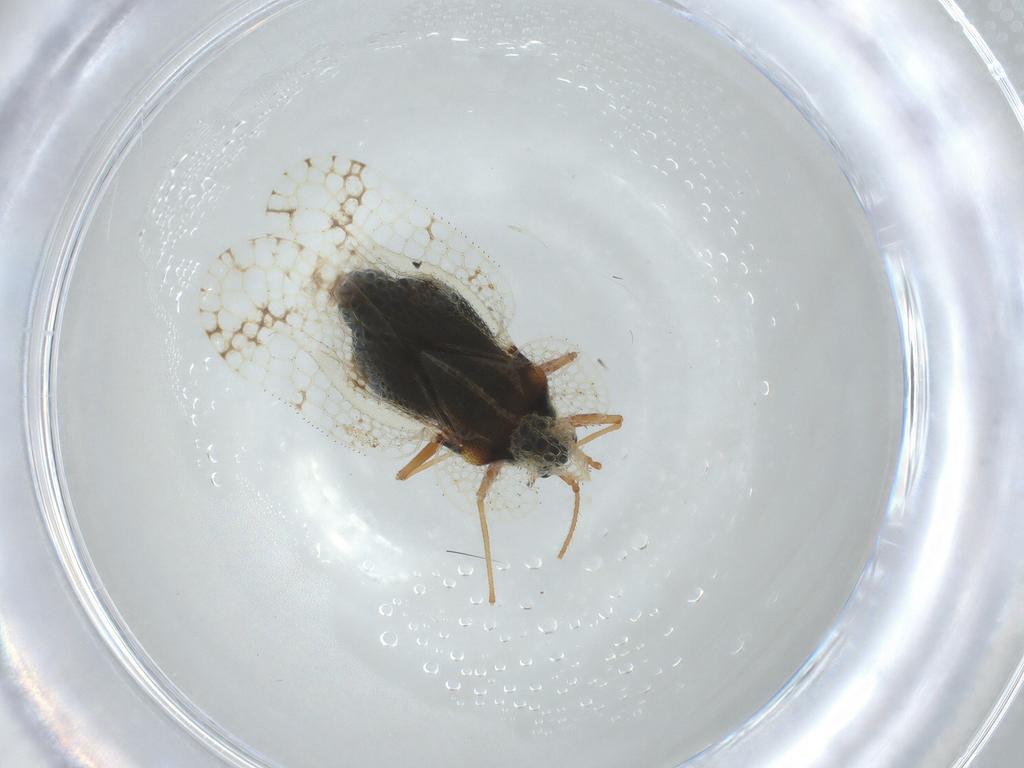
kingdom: Animalia
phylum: Arthropoda
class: Insecta
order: Hemiptera
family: Tingidae
